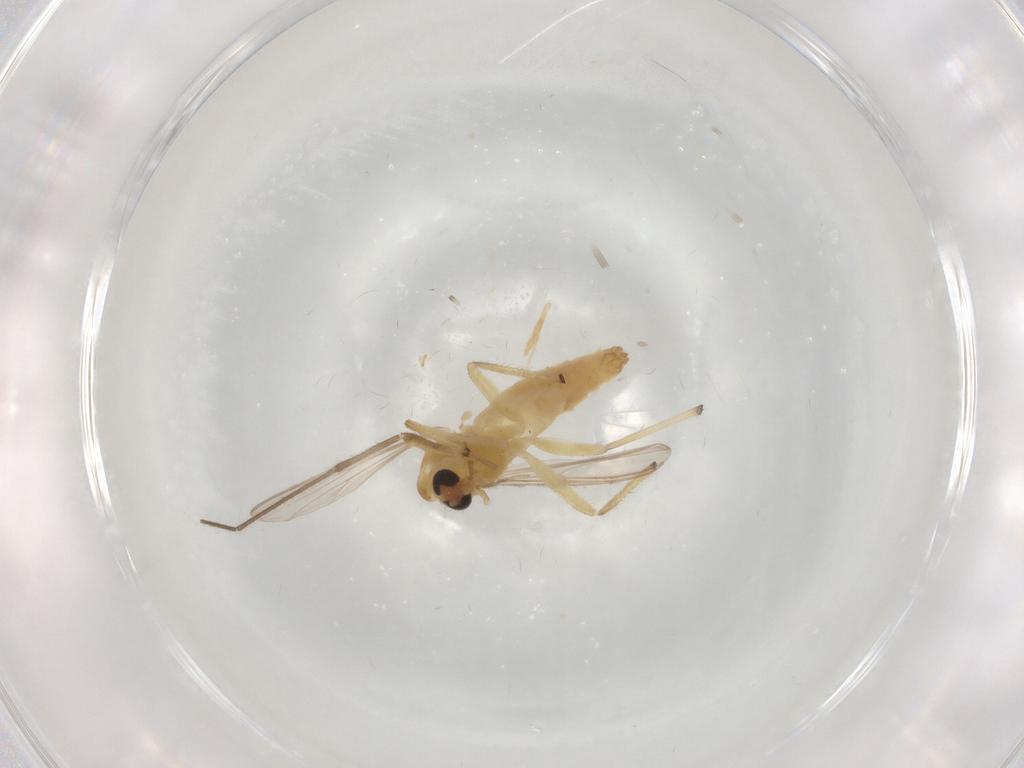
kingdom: Animalia
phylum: Arthropoda
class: Insecta
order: Diptera
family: Chironomidae
